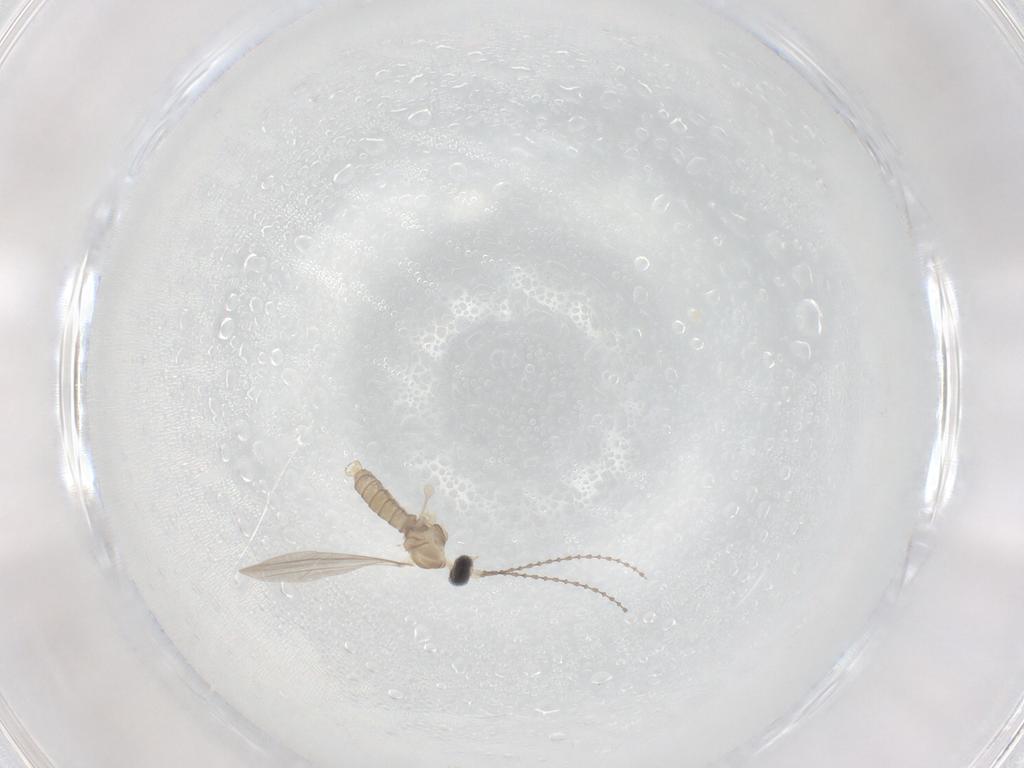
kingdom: Animalia
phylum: Arthropoda
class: Insecta
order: Diptera
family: Cecidomyiidae
